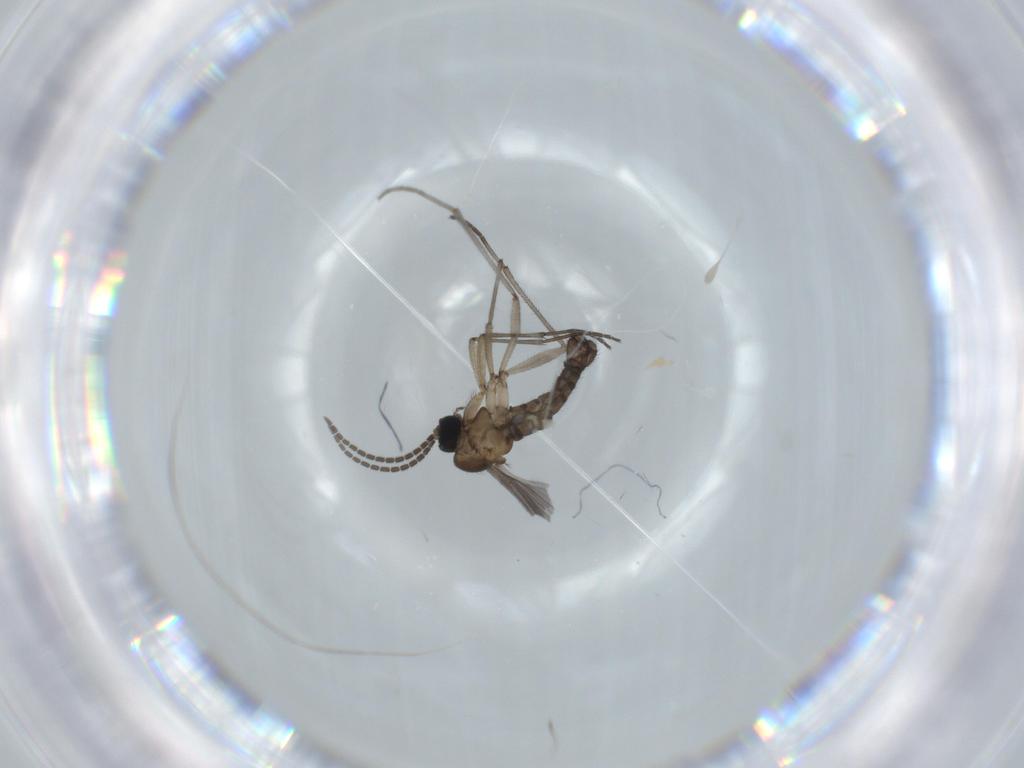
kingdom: Animalia
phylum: Arthropoda
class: Insecta
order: Diptera
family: Sciaridae
